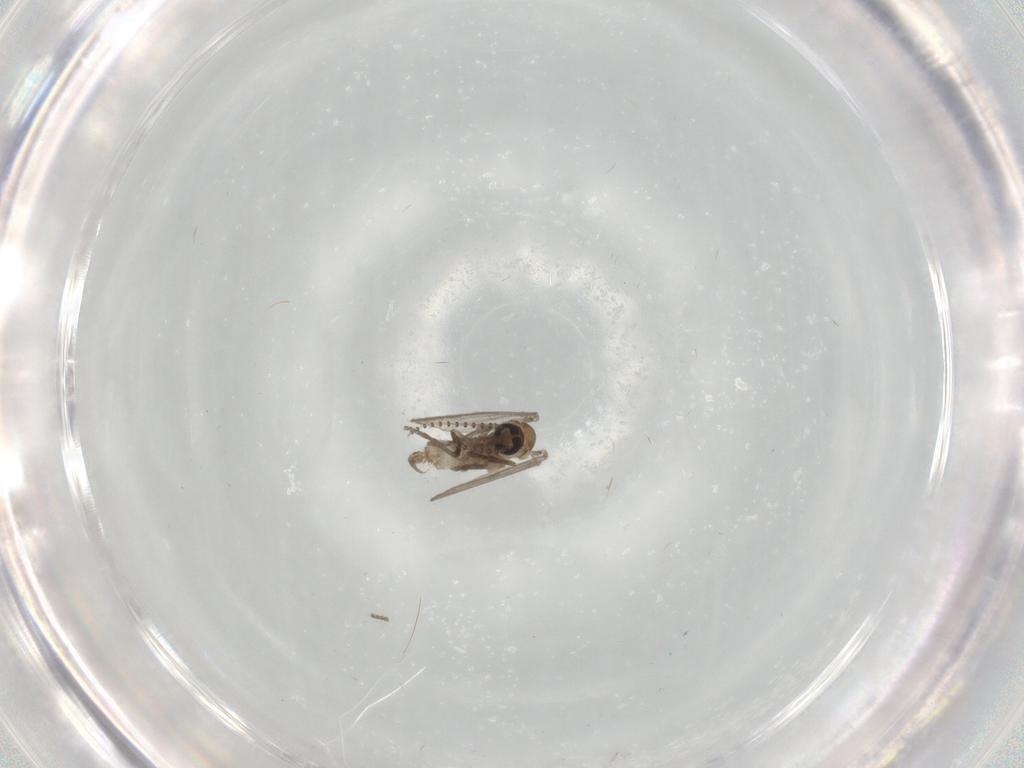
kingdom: Animalia
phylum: Arthropoda
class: Insecta
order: Diptera
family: Psychodidae
